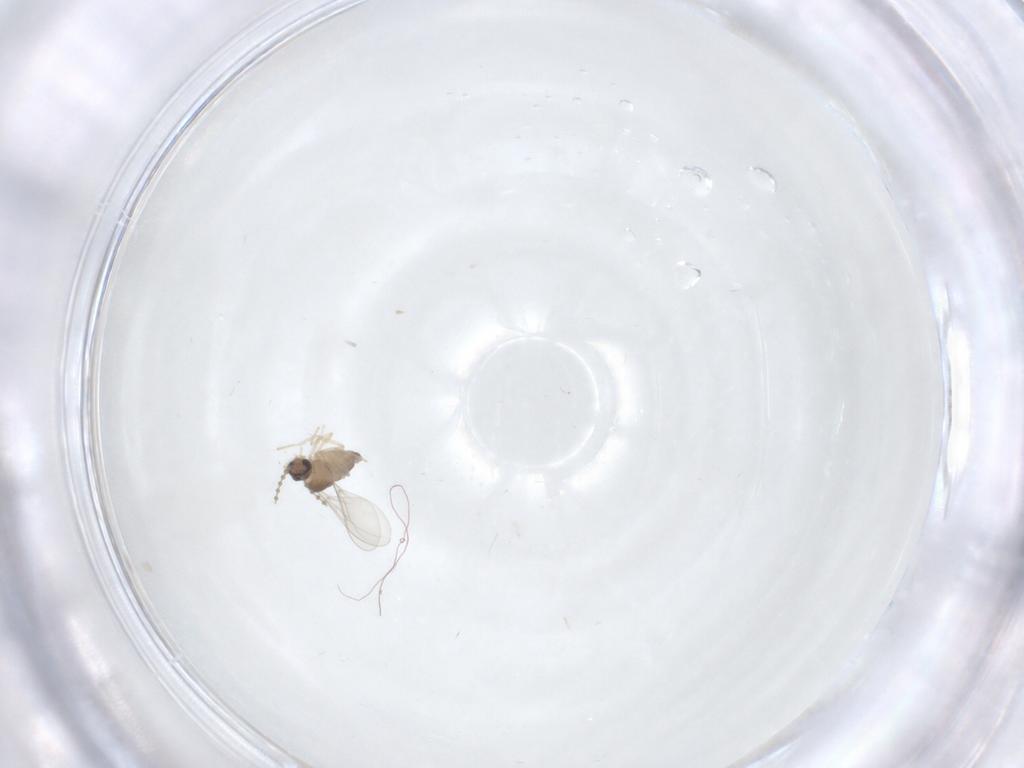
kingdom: Animalia
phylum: Arthropoda
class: Insecta
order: Diptera
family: Cecidomyiidae
